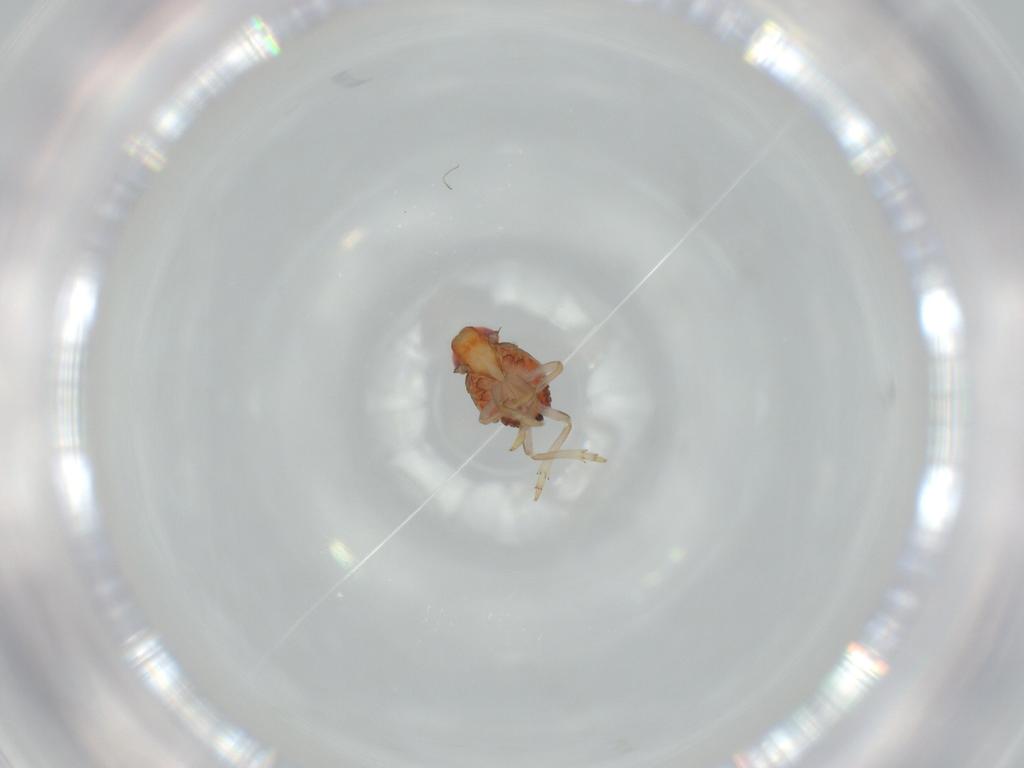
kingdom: Animalia
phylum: Arthropoda
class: Insecta
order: Hemiptera
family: Issidae
